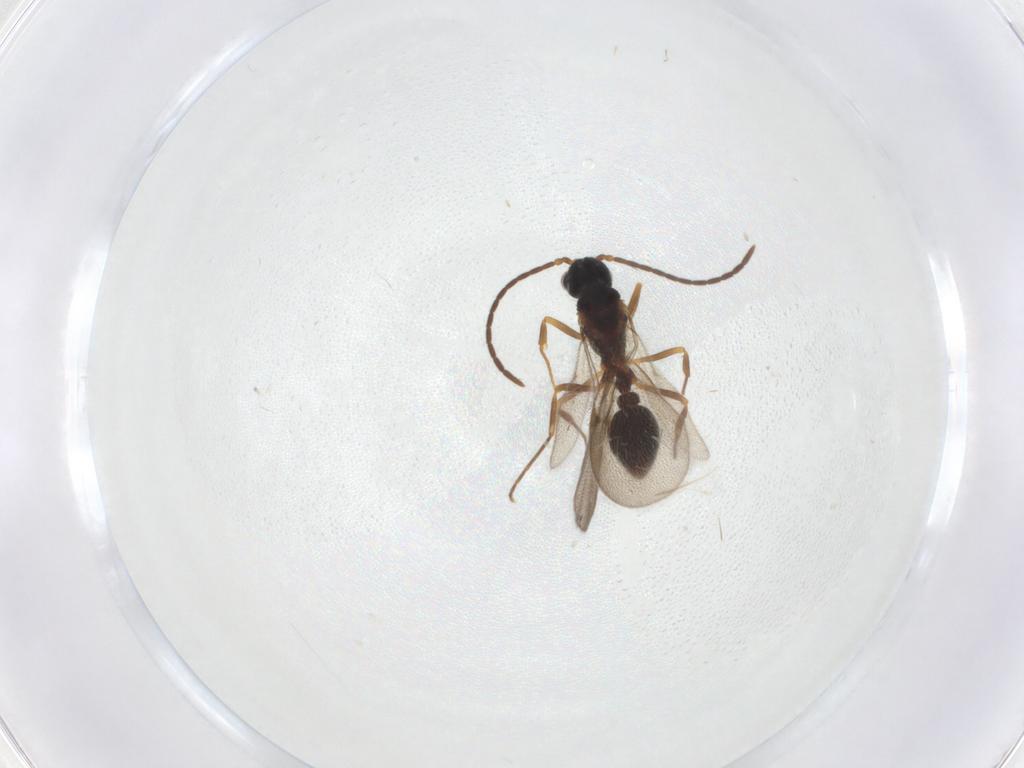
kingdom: Animalia
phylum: Arthropoda
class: Insecta
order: Hymenoptera
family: Formicidae
